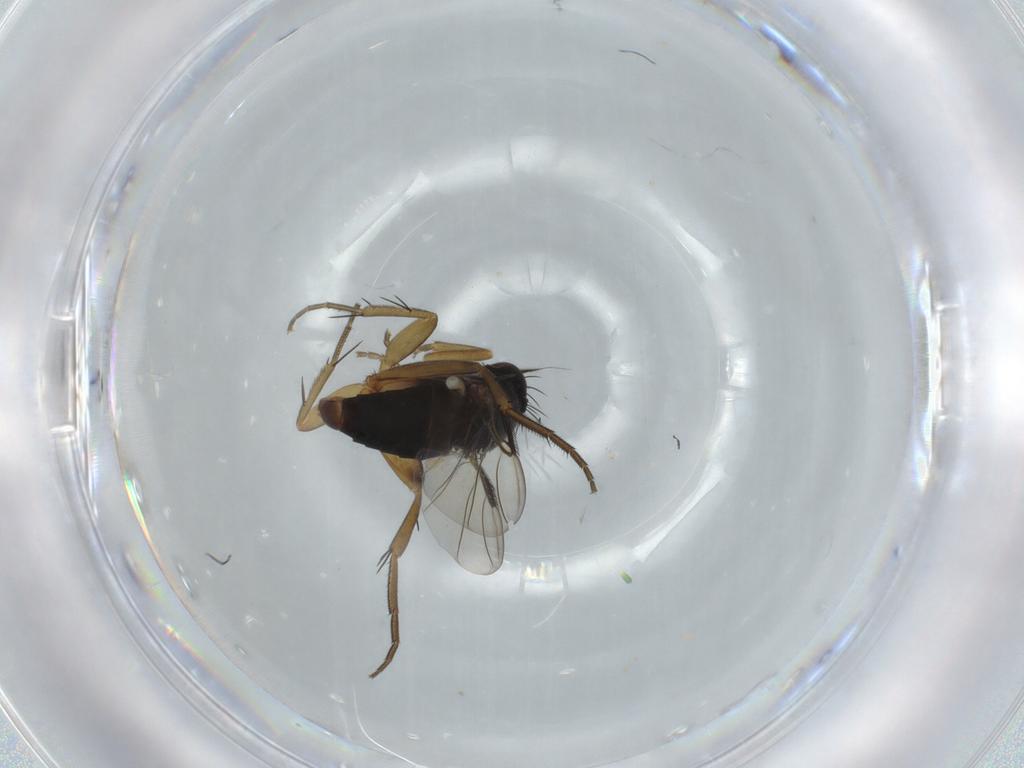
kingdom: Animalia
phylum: Arthropoda
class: Insecta
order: Diptera
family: Phoridae
